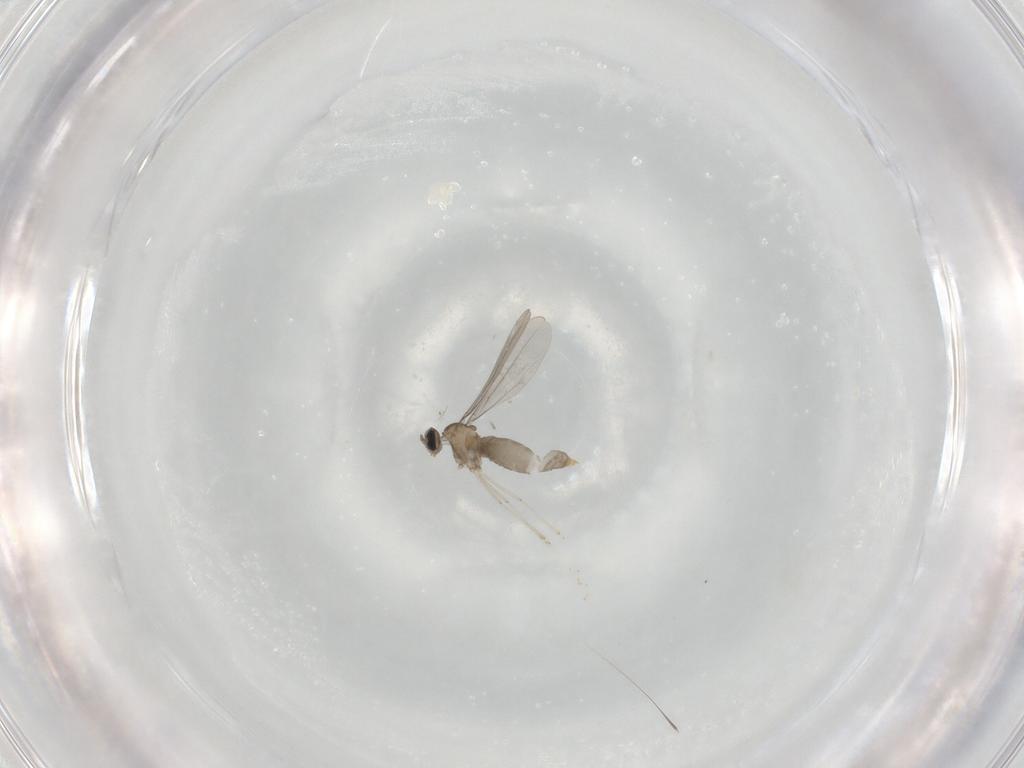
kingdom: Animalia
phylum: Arthropoda
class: Insecta
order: Diptera
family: Cecidomyiidae
